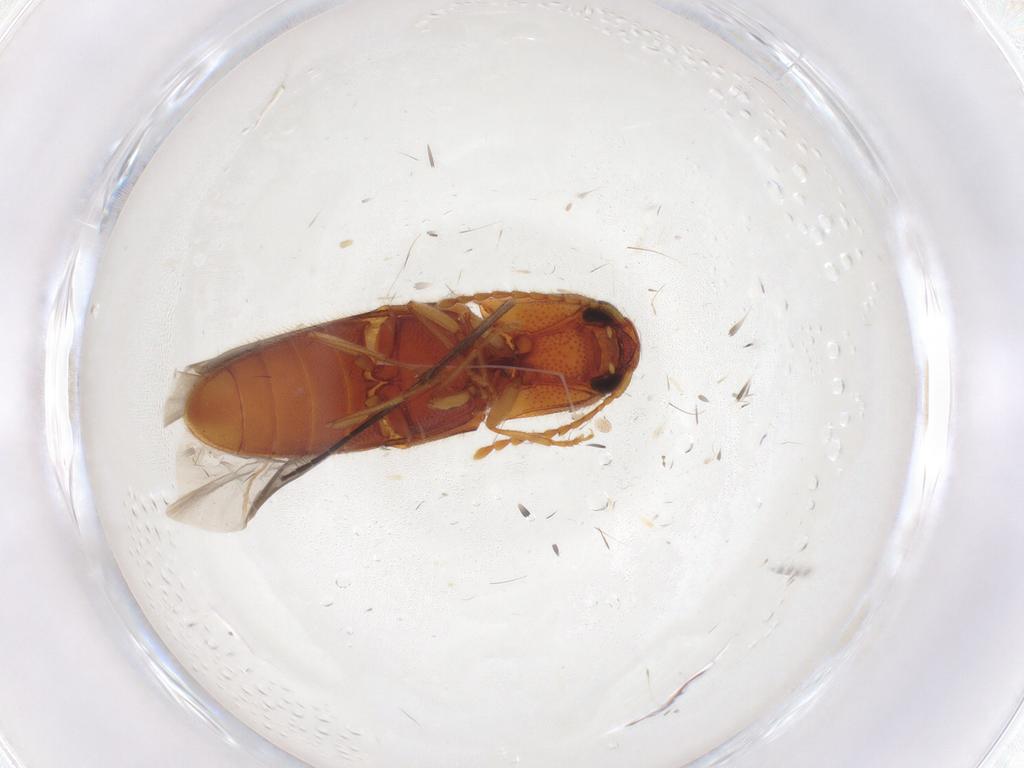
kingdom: Animalia
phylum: Arthropoda
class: Insecta
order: Coleoptera
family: Elateridae
